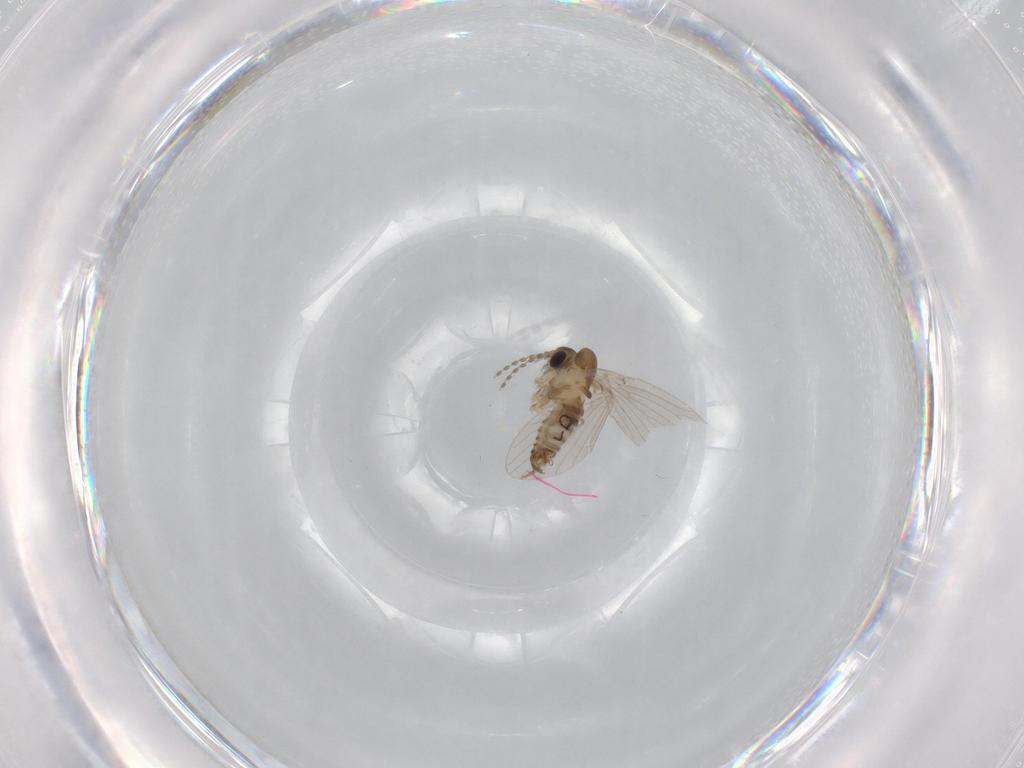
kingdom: Animalia
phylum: Arthropoda
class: Insecta
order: Diptera
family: Psychodidae
